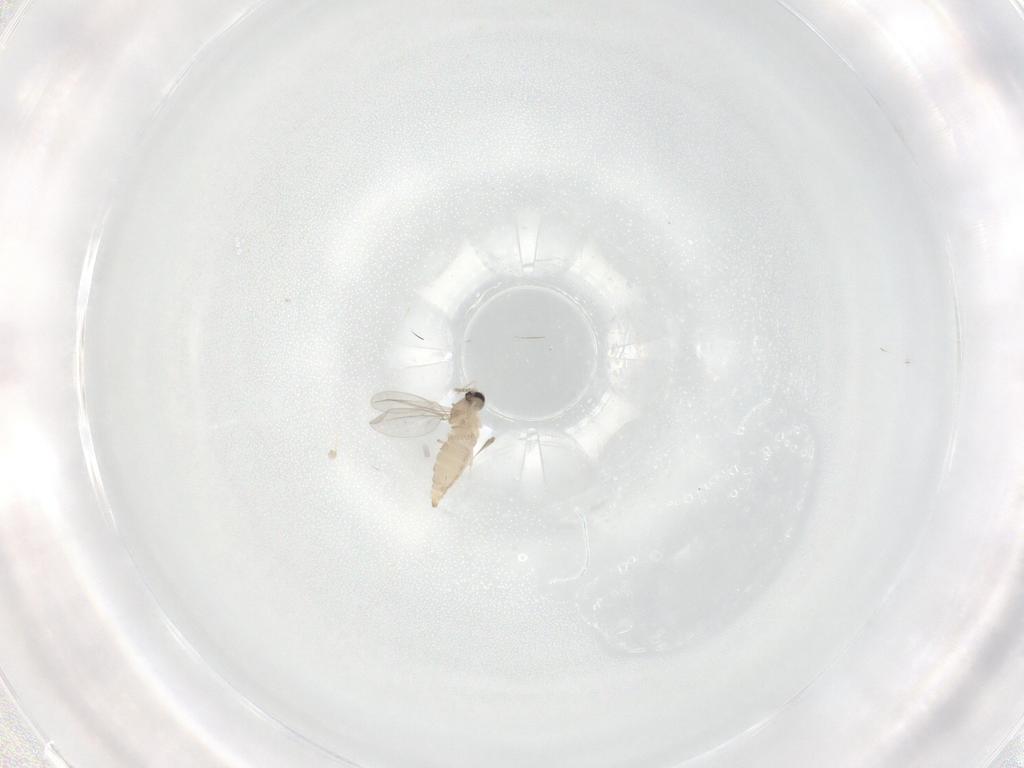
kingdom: Animalia
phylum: Arthropoda
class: Insecta
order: Diptera
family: Cecidomyiidae
